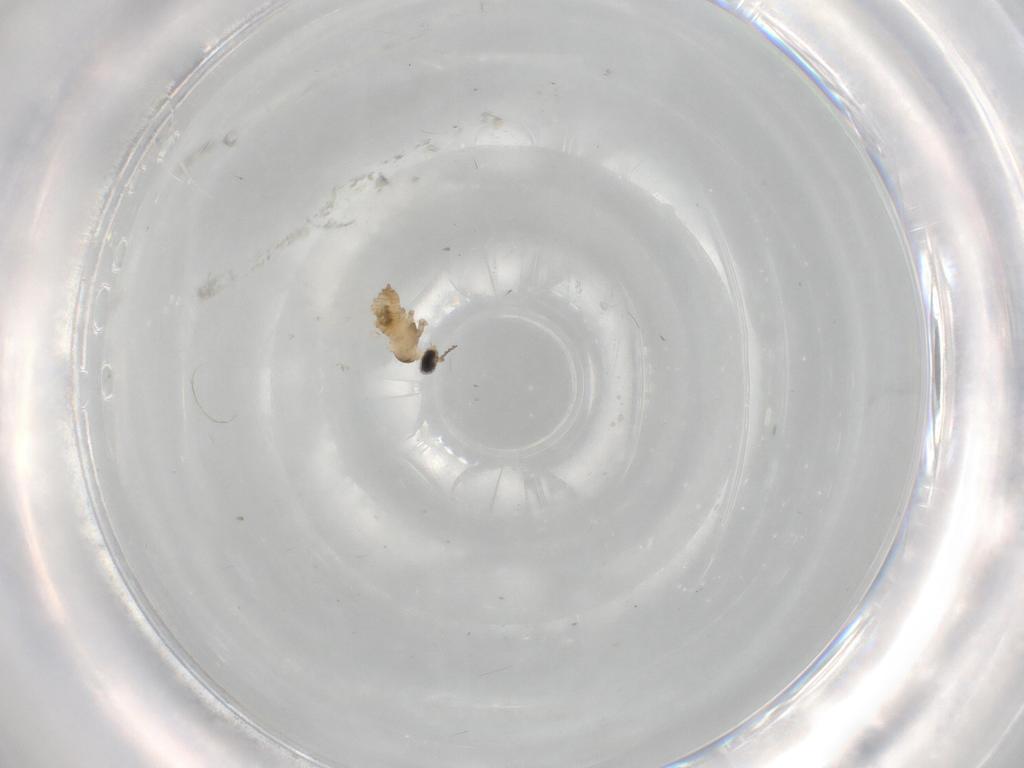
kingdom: Animalia
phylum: Arthropoda
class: Insecta
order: Diptera
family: Cecidomyiidae
